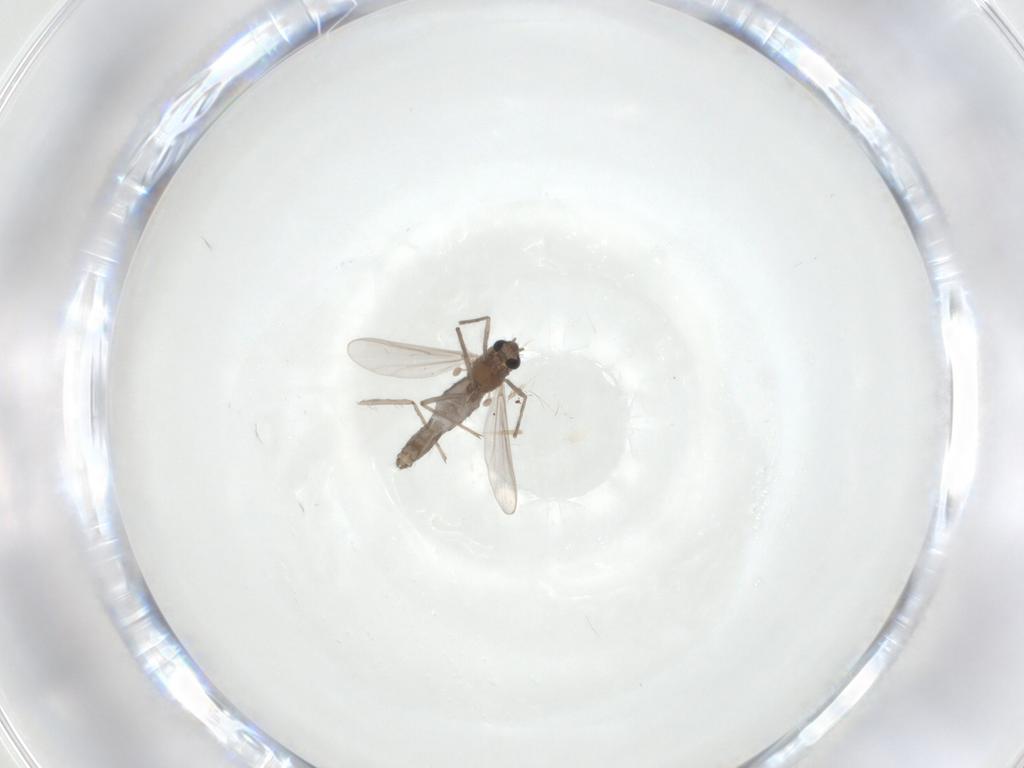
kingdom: Animalia
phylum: Arthropoda
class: Insecta
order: Diptera
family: Chironomidae
